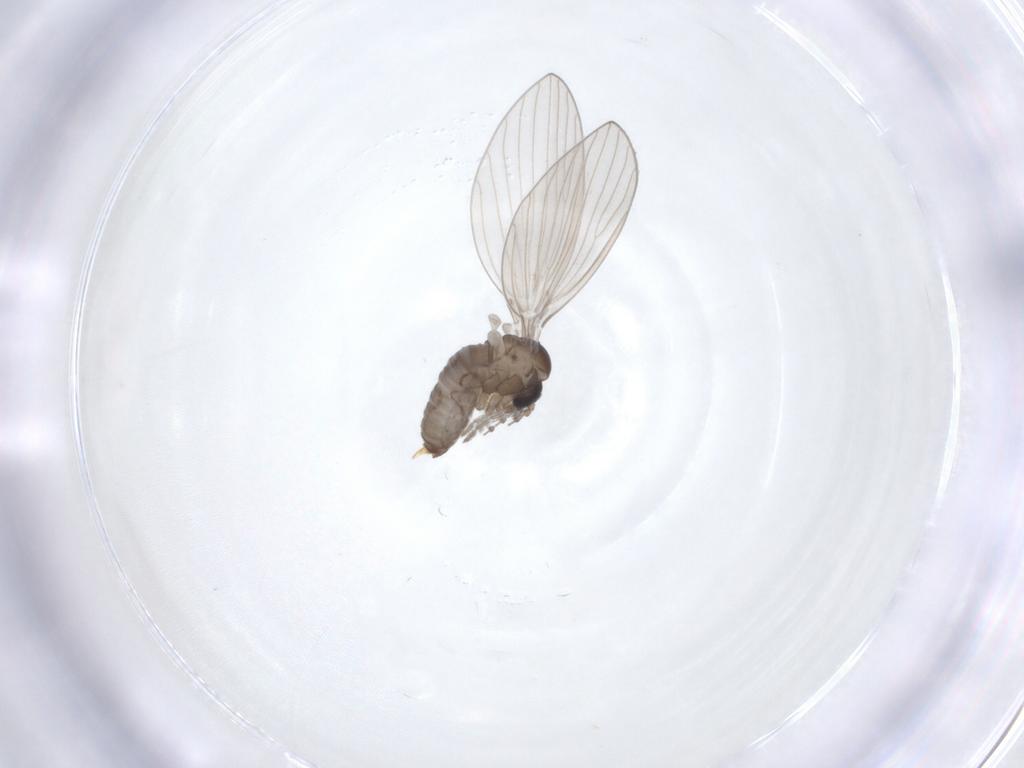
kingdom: Animalia
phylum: Arthropoda
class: Insecta
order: Diptera
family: Psychodidae
